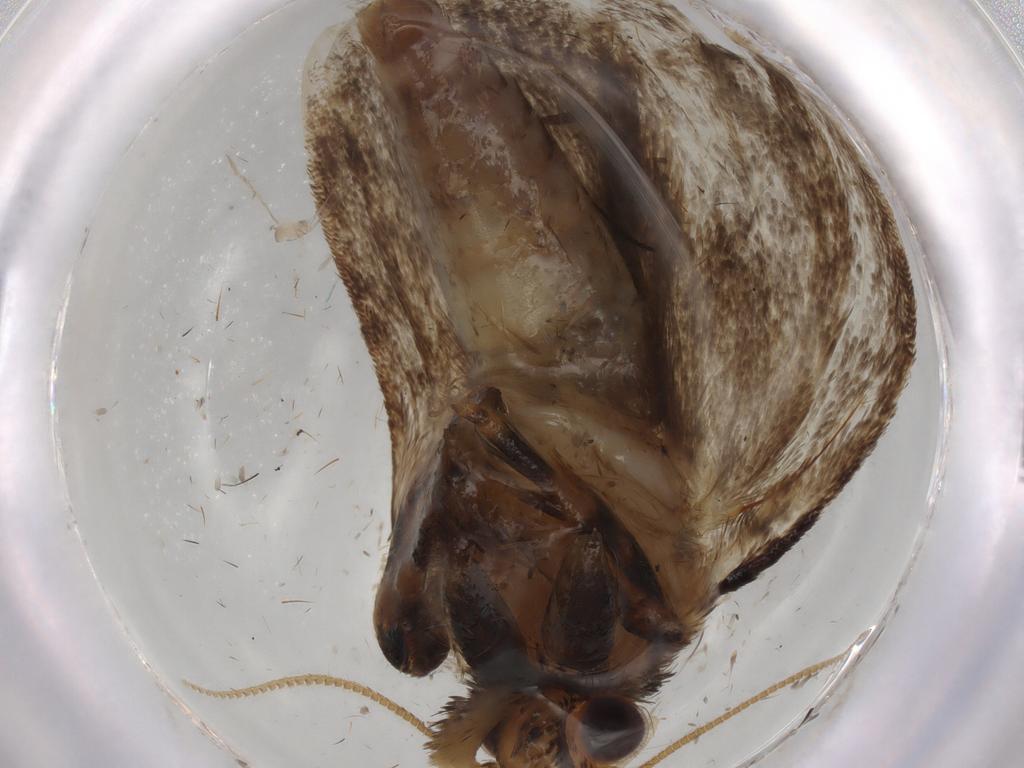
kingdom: Animalia
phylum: Arthropoda
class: Insecta
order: Lepidoptera
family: Tineidae
